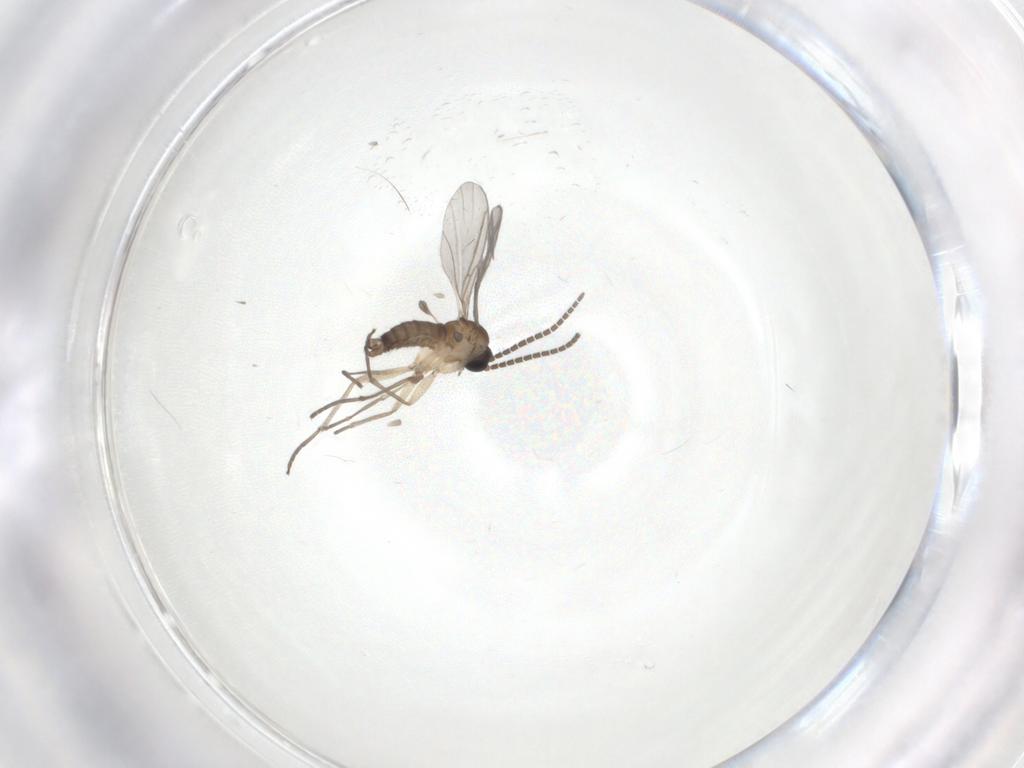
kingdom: Animalia
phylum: Arthropoda
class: Insecta
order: Diptera
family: Sciaridae
